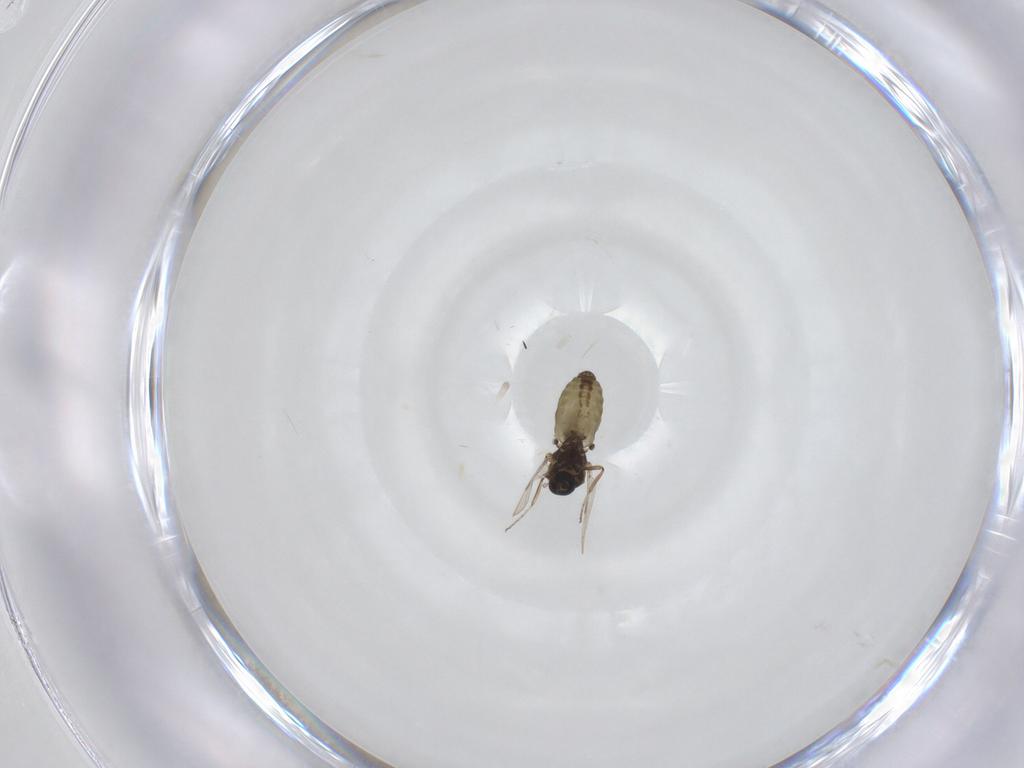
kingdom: Animalia
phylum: Arthropoda
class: Insecta
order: Diptera
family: Ceratopogonidae
